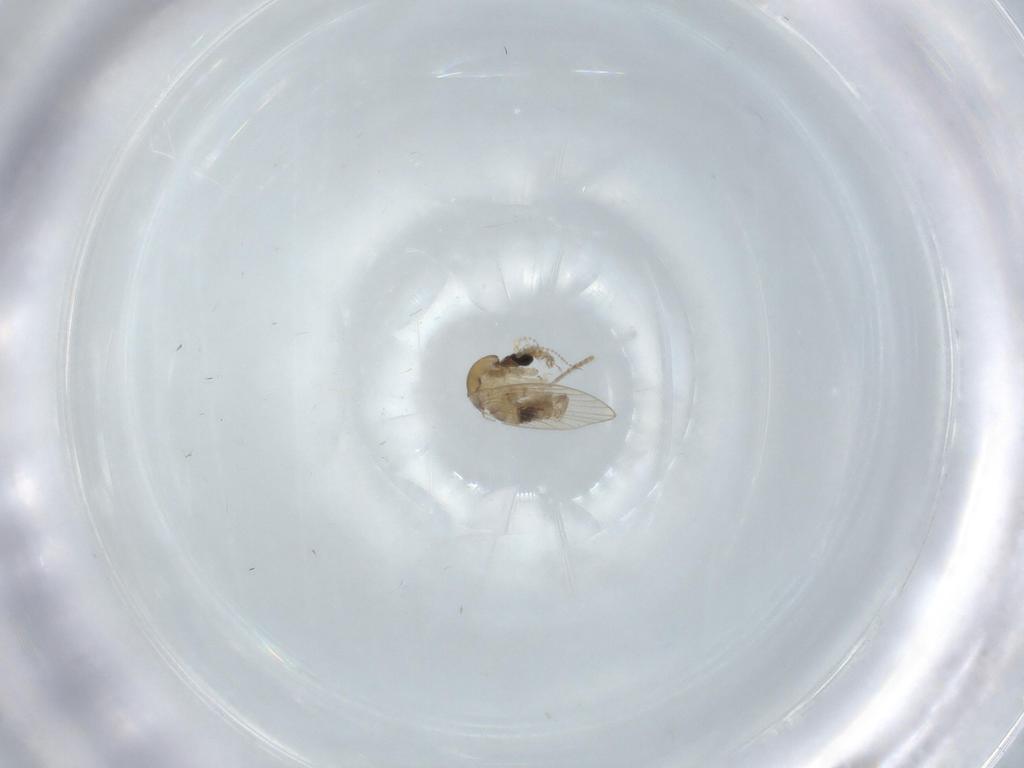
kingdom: Animalia
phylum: Arthropoda
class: Insecta
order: Diptera
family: Psychodidae
